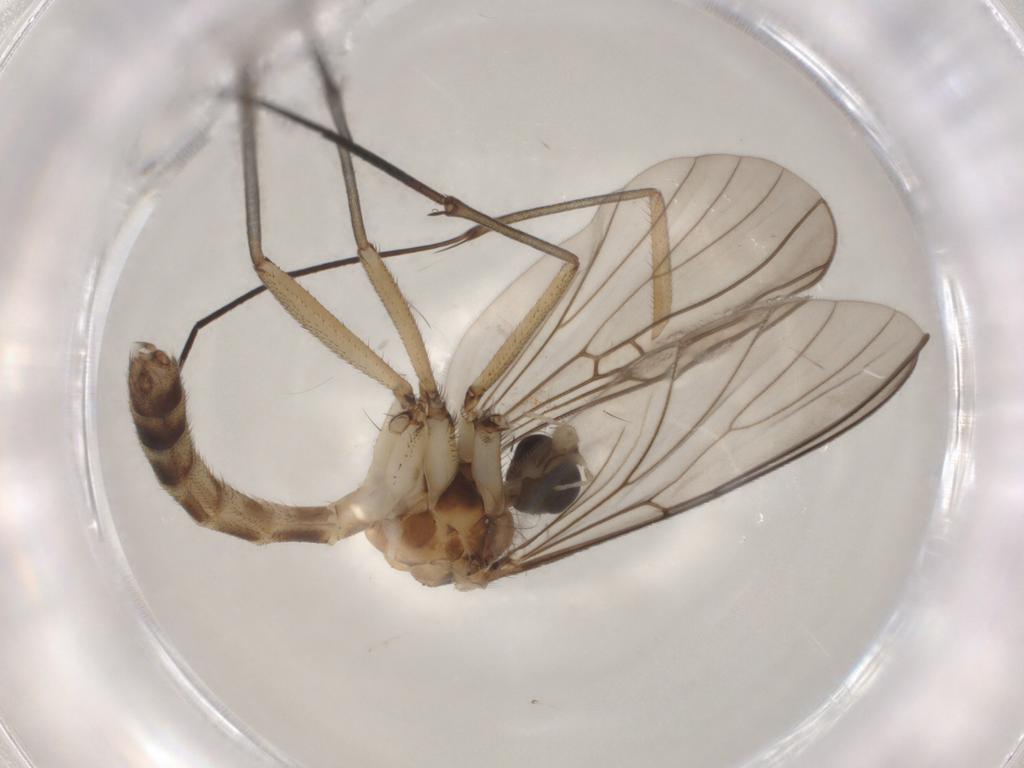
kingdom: Animalia
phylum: Arthropoda
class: Insecta
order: Diptera
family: Mycetophilidae
